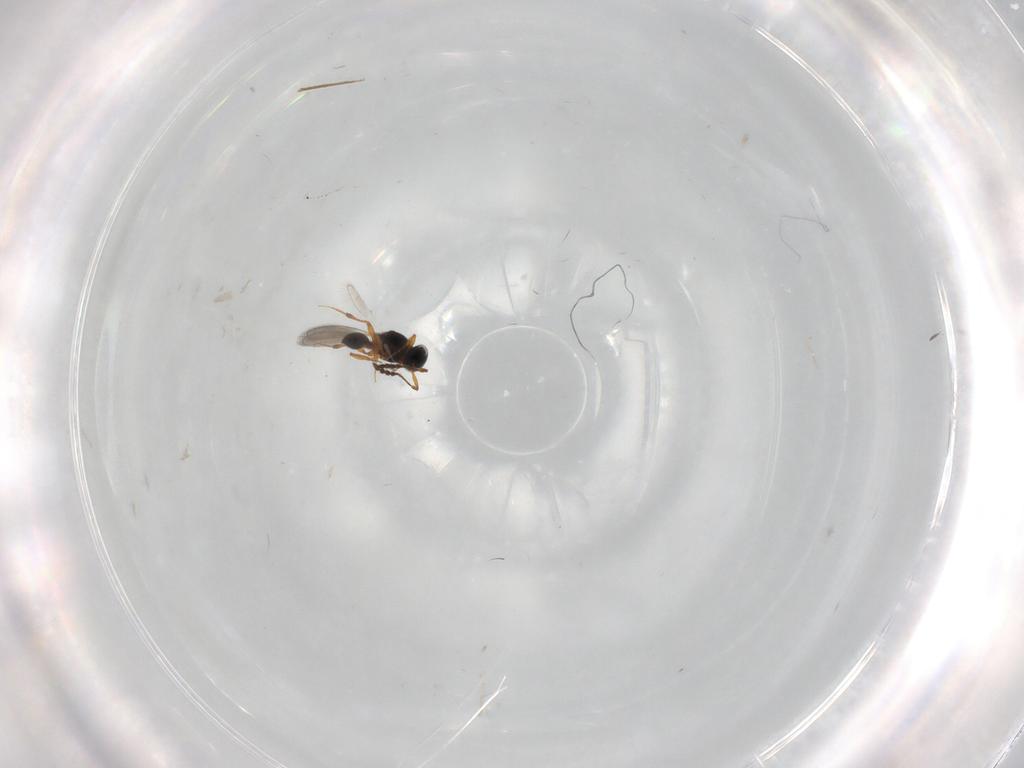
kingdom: Animalia
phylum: Arthropoda
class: Insecta
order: Hymenoptera
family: Platygastridae
